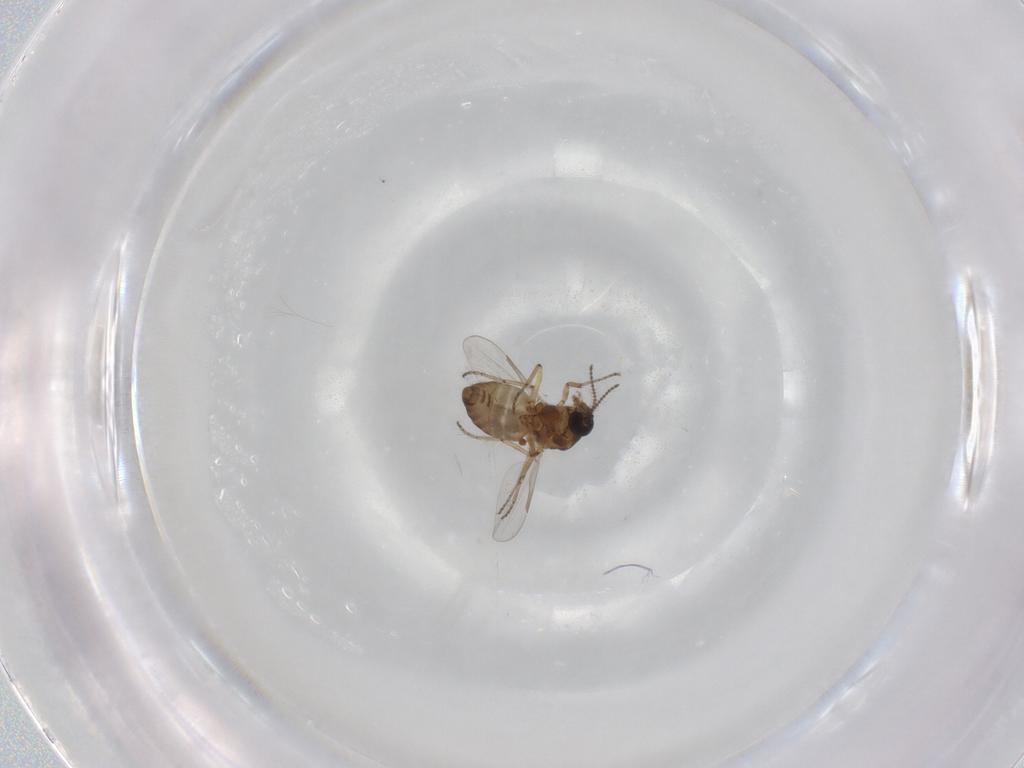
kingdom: Animalia
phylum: Arthropoda
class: Insecta
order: Diptera
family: Ceratopogonidae
